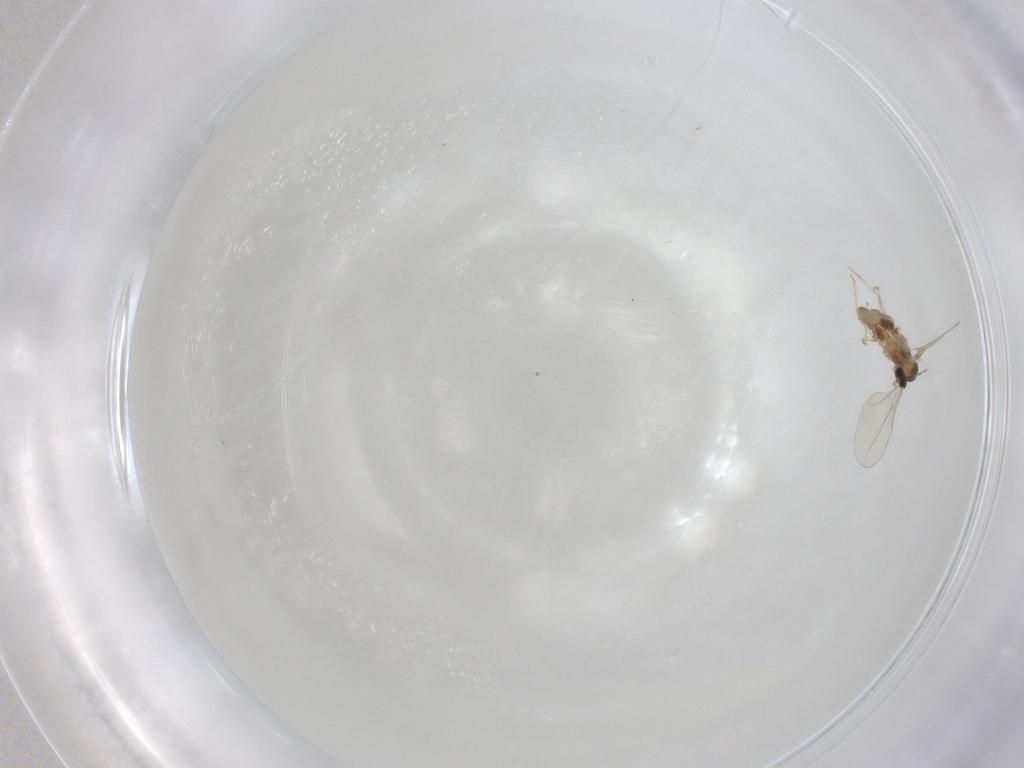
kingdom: Animalia
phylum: Arthropoda
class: Insecta
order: Diptera
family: Cecidomyiidae
